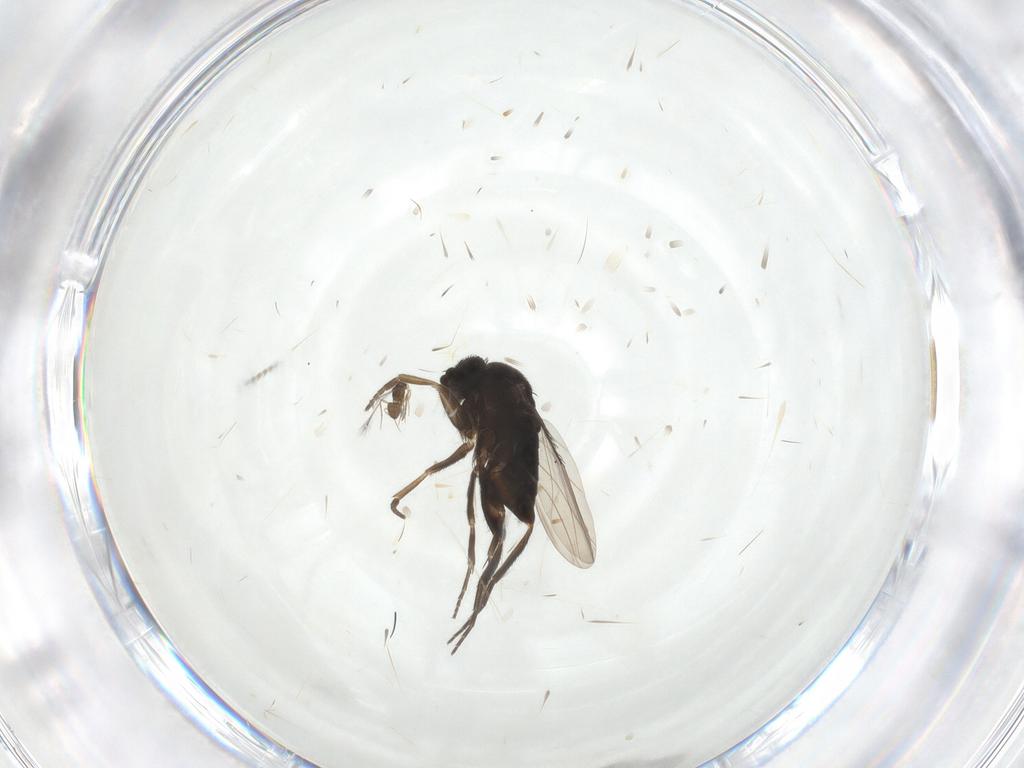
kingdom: Animalia
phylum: Arthropoda
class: Insecta
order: Diptera
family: Phoridae
